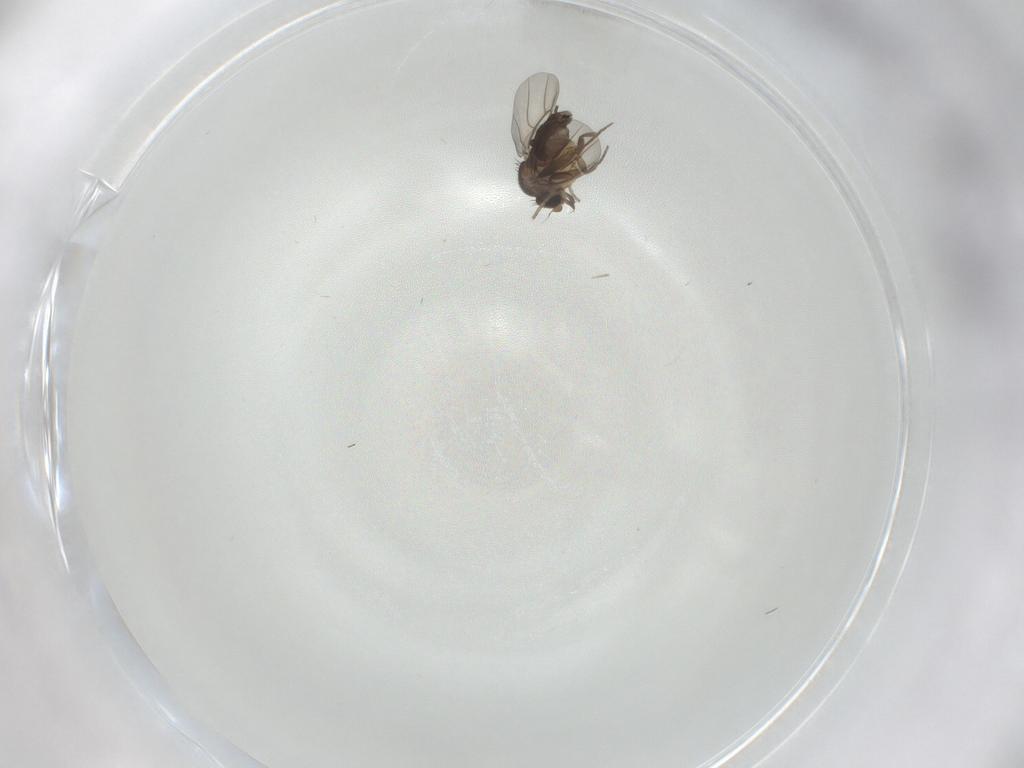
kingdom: Animalia
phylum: Arthropoda
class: Insecta
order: Diptera
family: Phoridae
